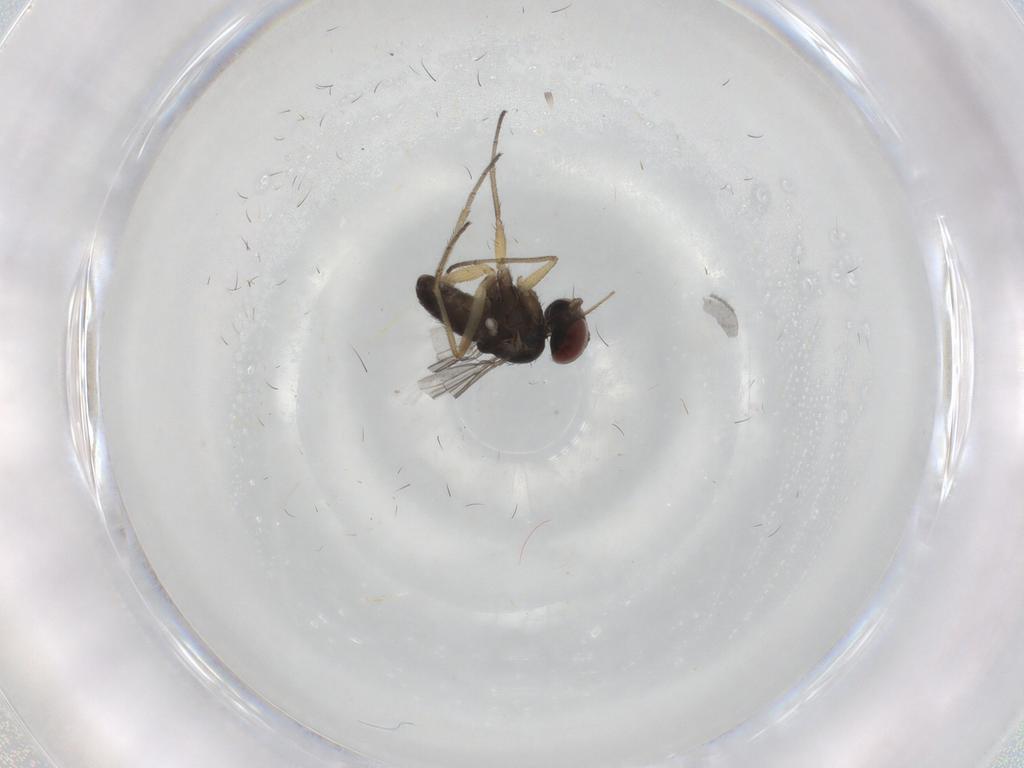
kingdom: Animalia
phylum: Arthropoda
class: Insecta
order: Diptera
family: Dolichopodidae
